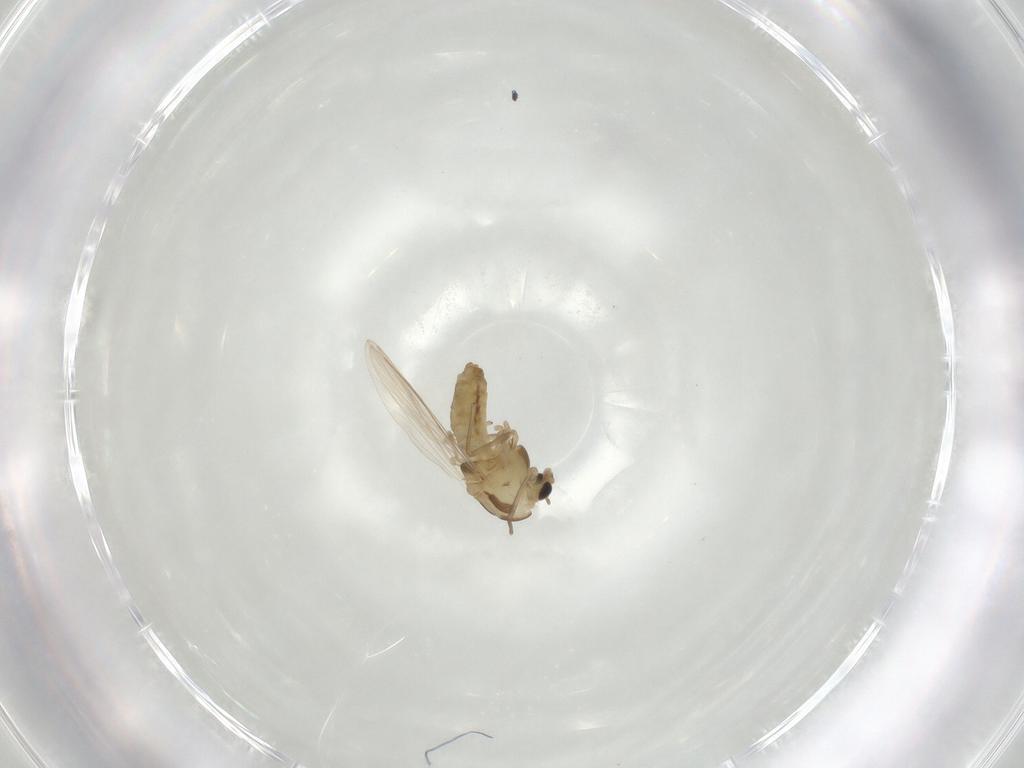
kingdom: Animalia
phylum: Arthropoda
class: Insecta
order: Diptera
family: Chironomidae
